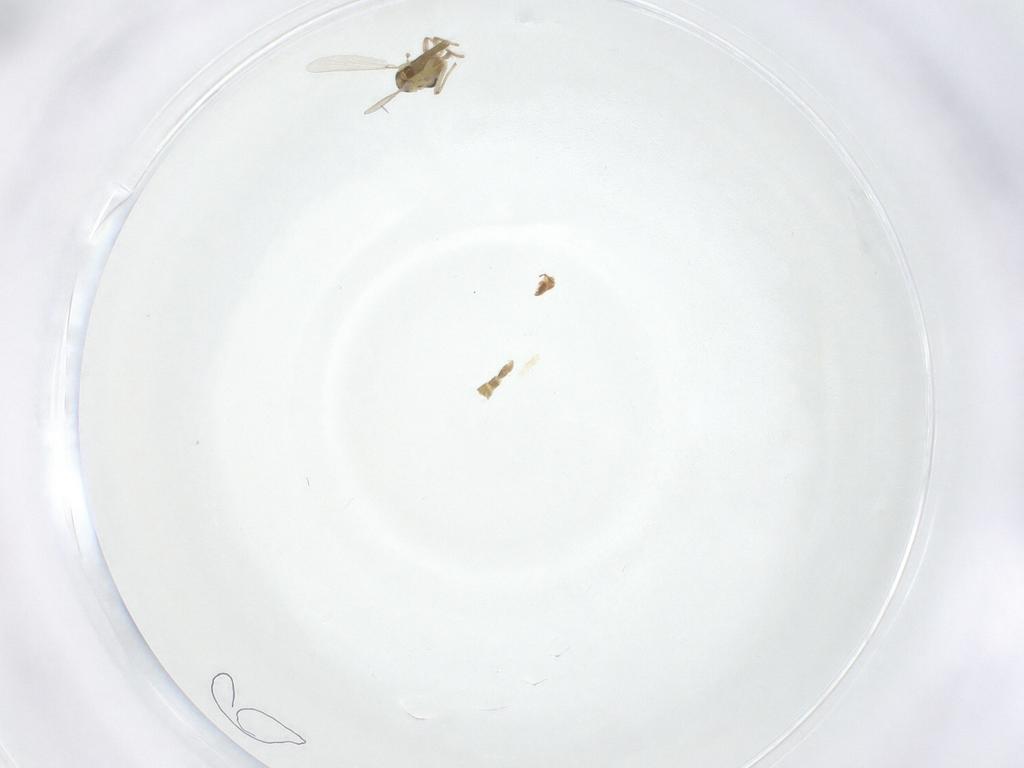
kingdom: Animalia
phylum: Arthropoda
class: Insecta
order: Diptera
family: Chironomidae
